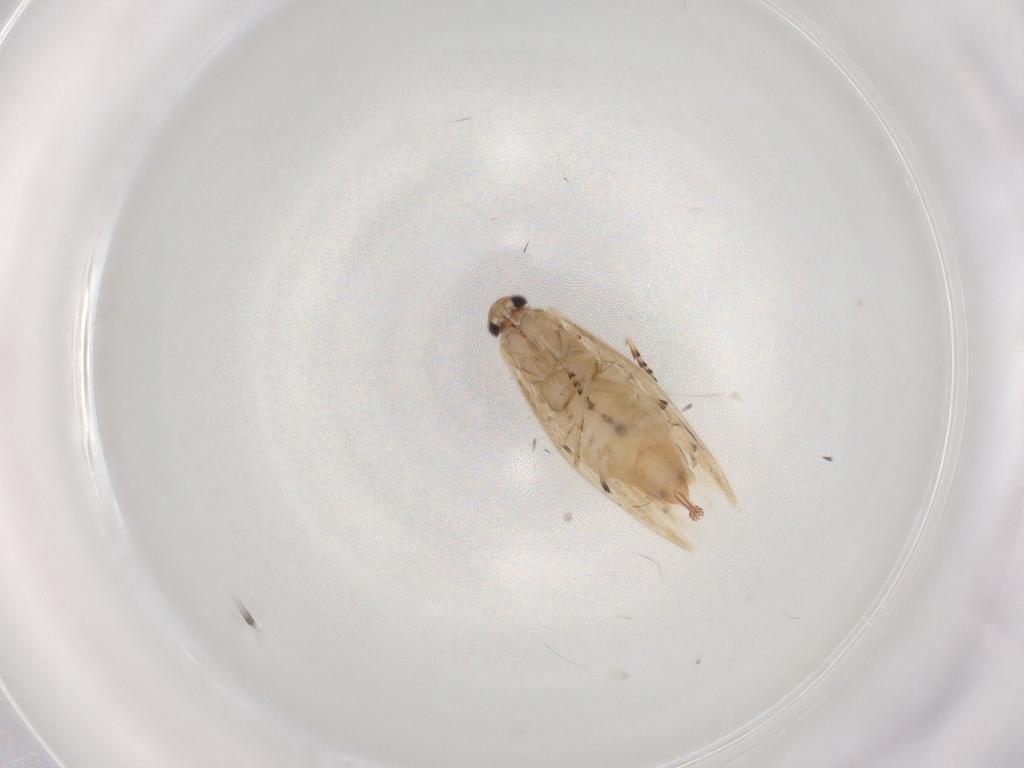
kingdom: Animalia
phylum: Arthropoda
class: Insecta
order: Lepidoptera
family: Bucculatricidae
